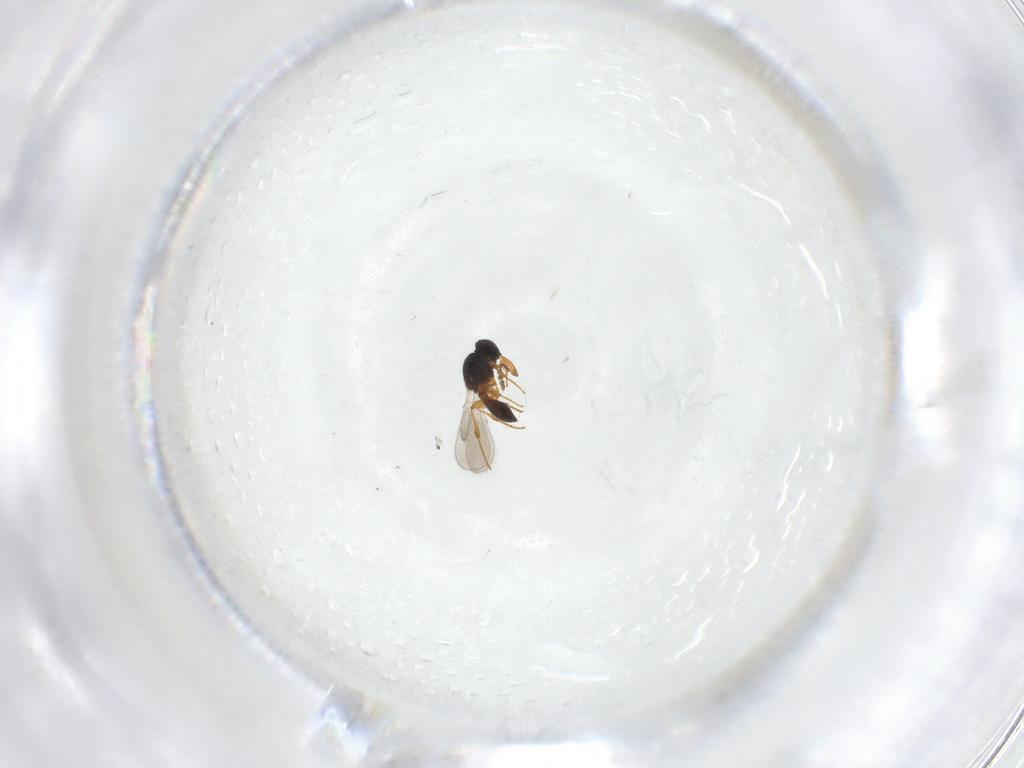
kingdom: Animalia
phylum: Arthropoda
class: Insecta
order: Hymenoptera
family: Platygastridae
